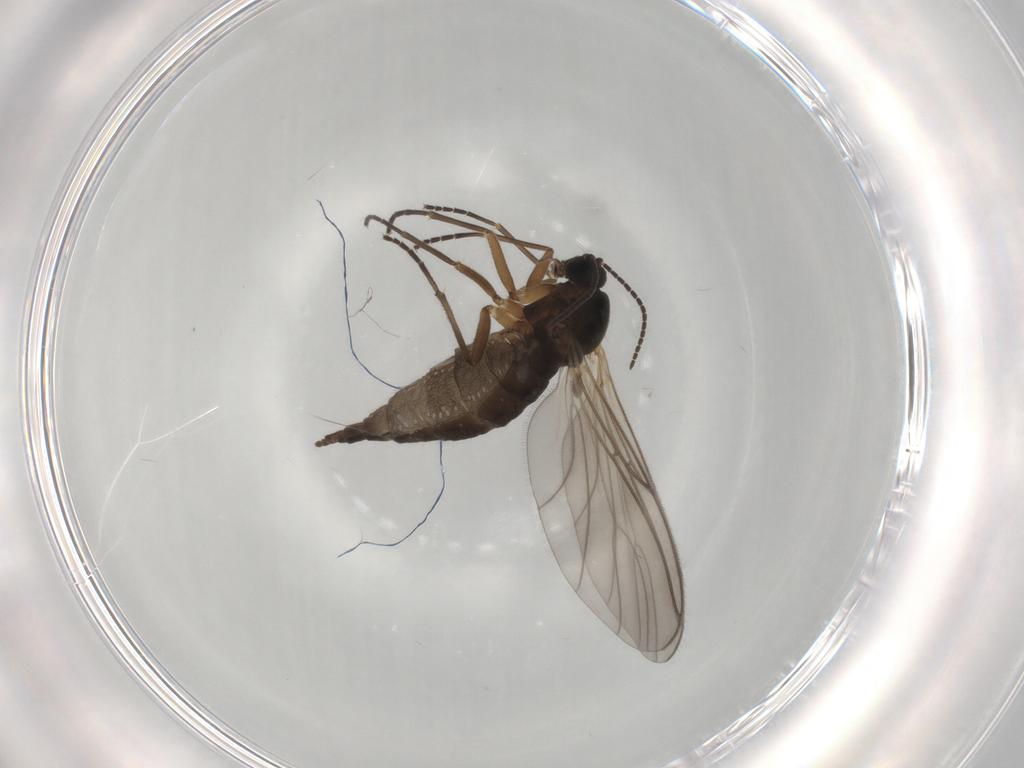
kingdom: Animalia
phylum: Arthropoda
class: Insecta
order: Diptera
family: Sciaridae
